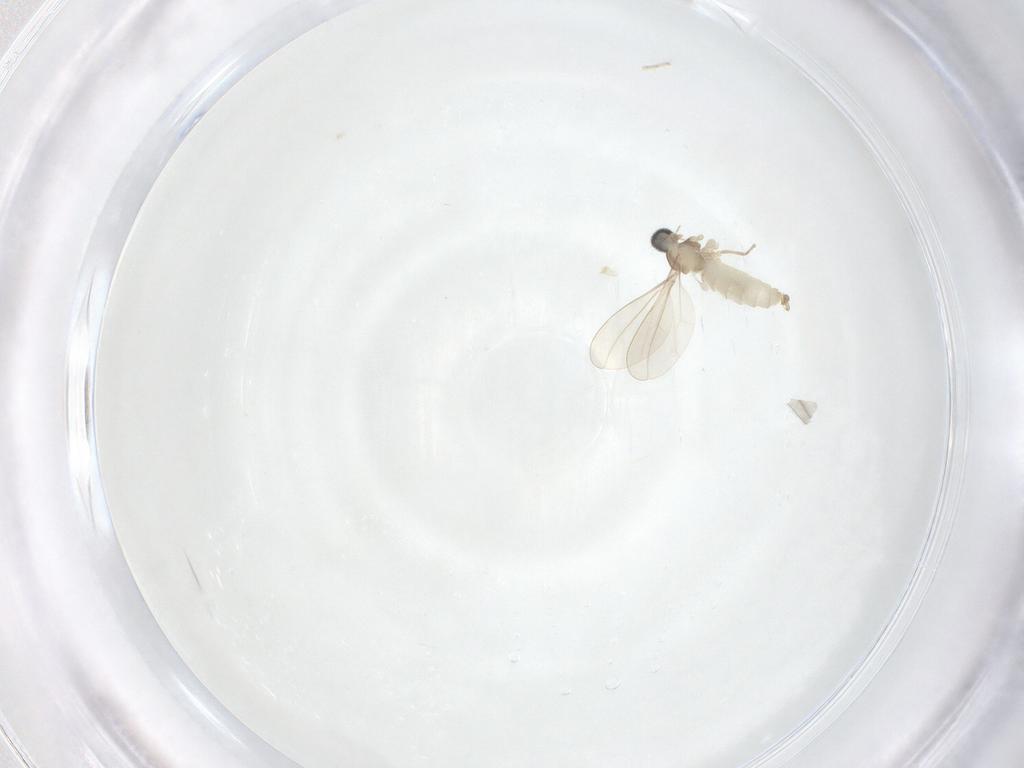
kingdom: Animalia
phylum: Arthropoda
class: Insecta
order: Diptera
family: Cecidomyiidae
